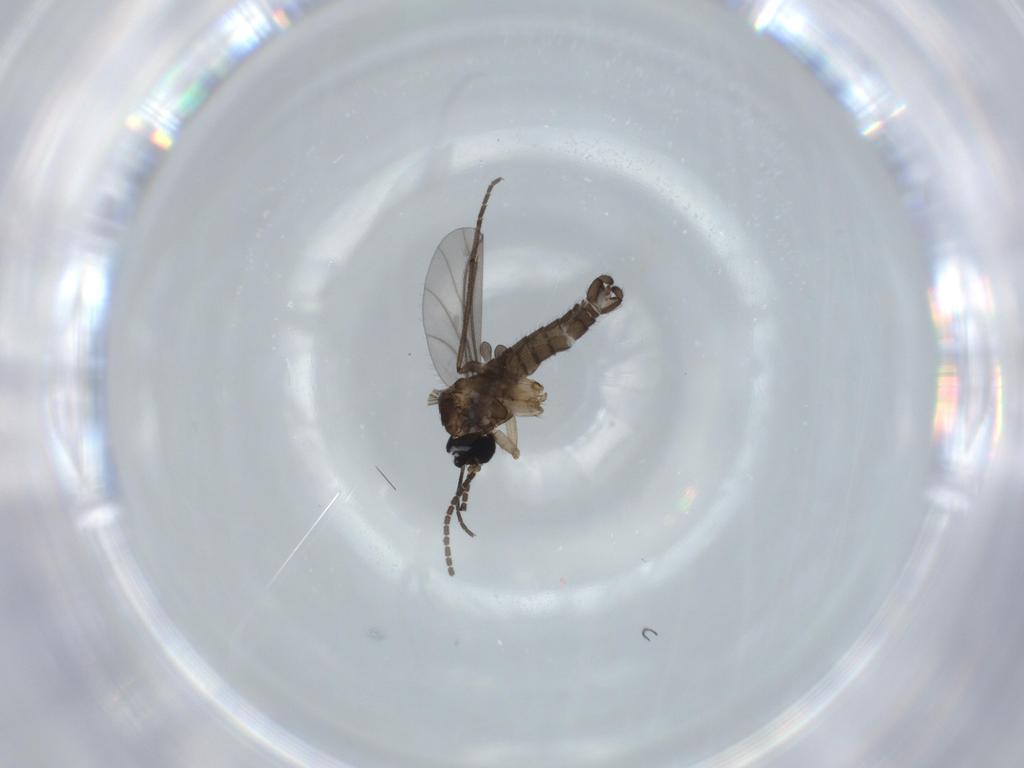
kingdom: Animalia
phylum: Arthropoda
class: Insecta
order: Diptera
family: Sciaridae
